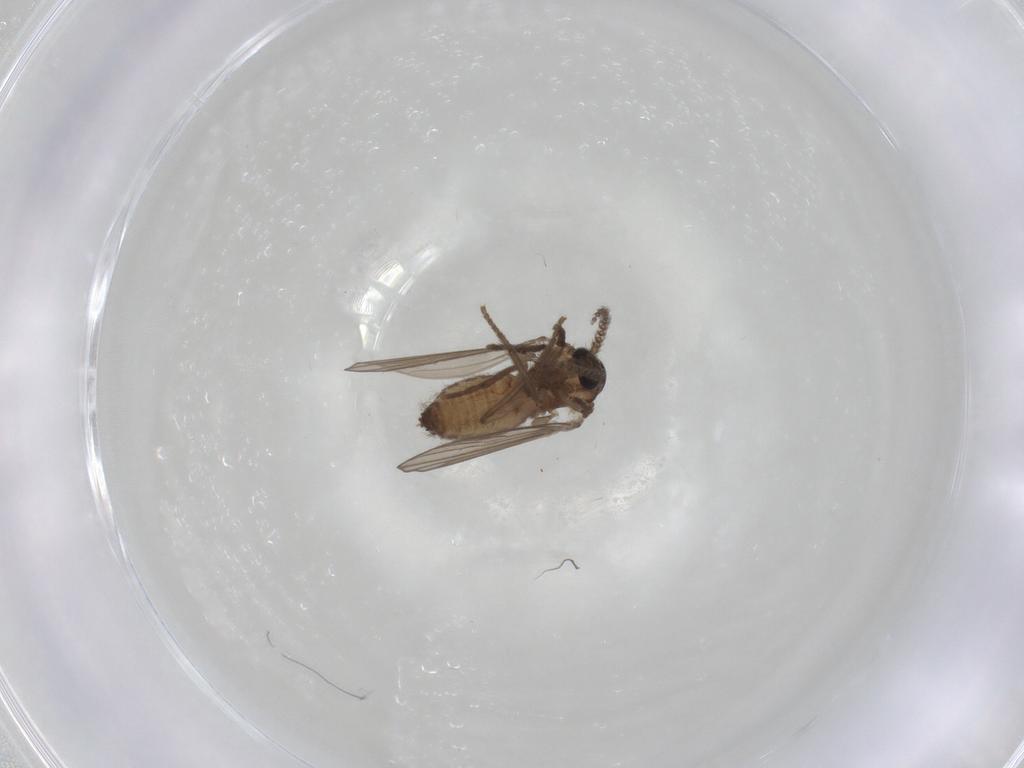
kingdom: Animalia
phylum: Arthropoda
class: Insecta
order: Diptera
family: Psychodidae
